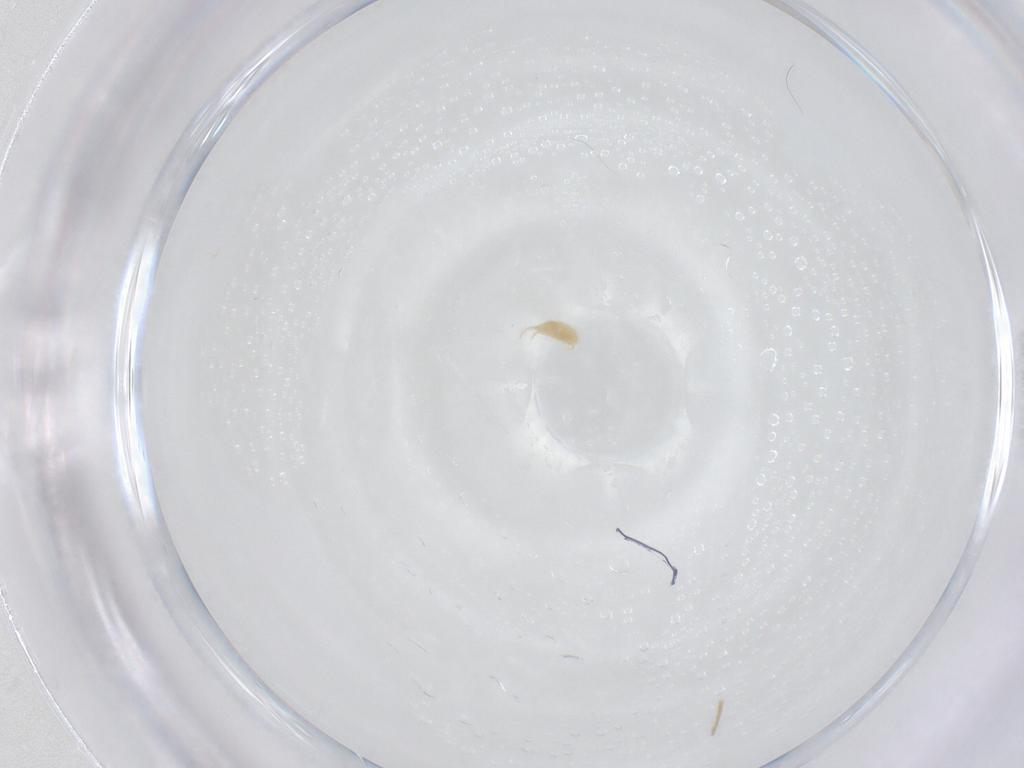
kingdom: Animalia
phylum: Arthropoda
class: Arachnida
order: Trombidiformes
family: Tetranychidae
